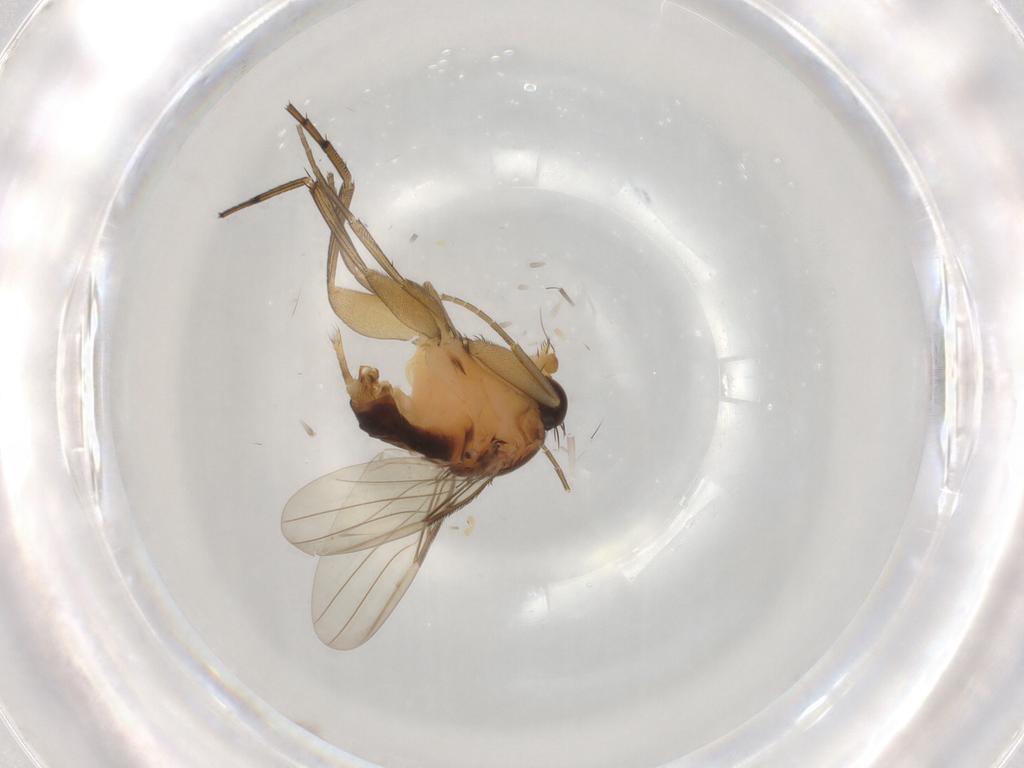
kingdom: Animalia
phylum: Arthropoda
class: Insecta
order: Diptera
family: Cecidomyiidae
